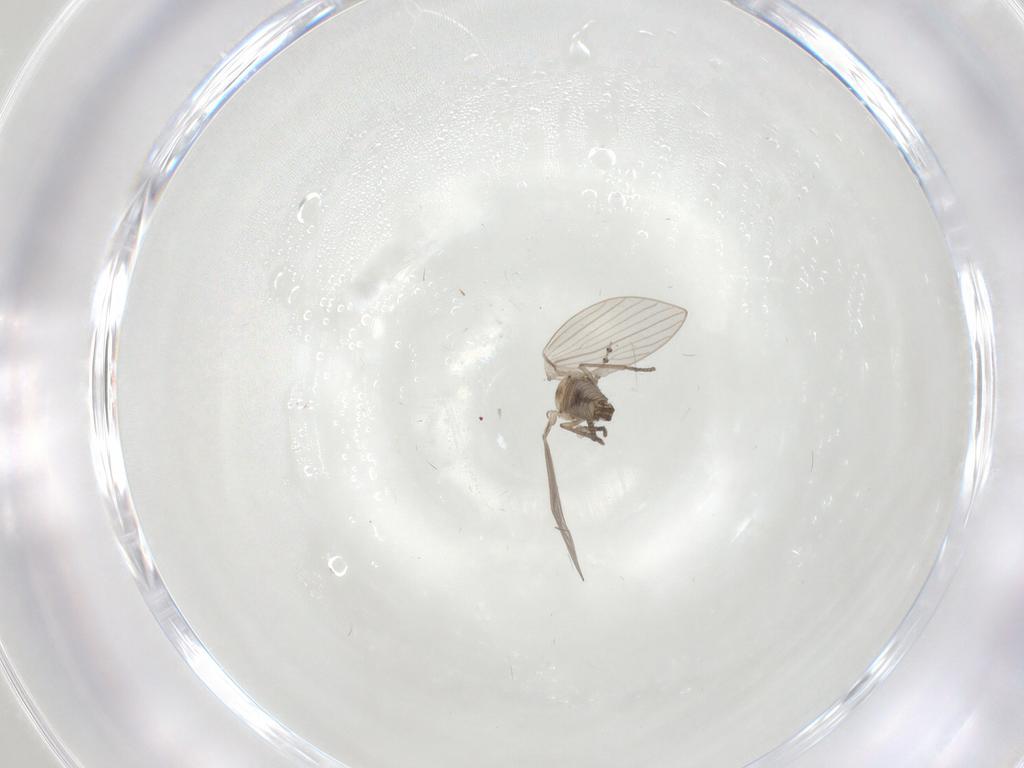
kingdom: Animalia
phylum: Arthropoda
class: Insecta
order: Diptera
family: Psychodidae
